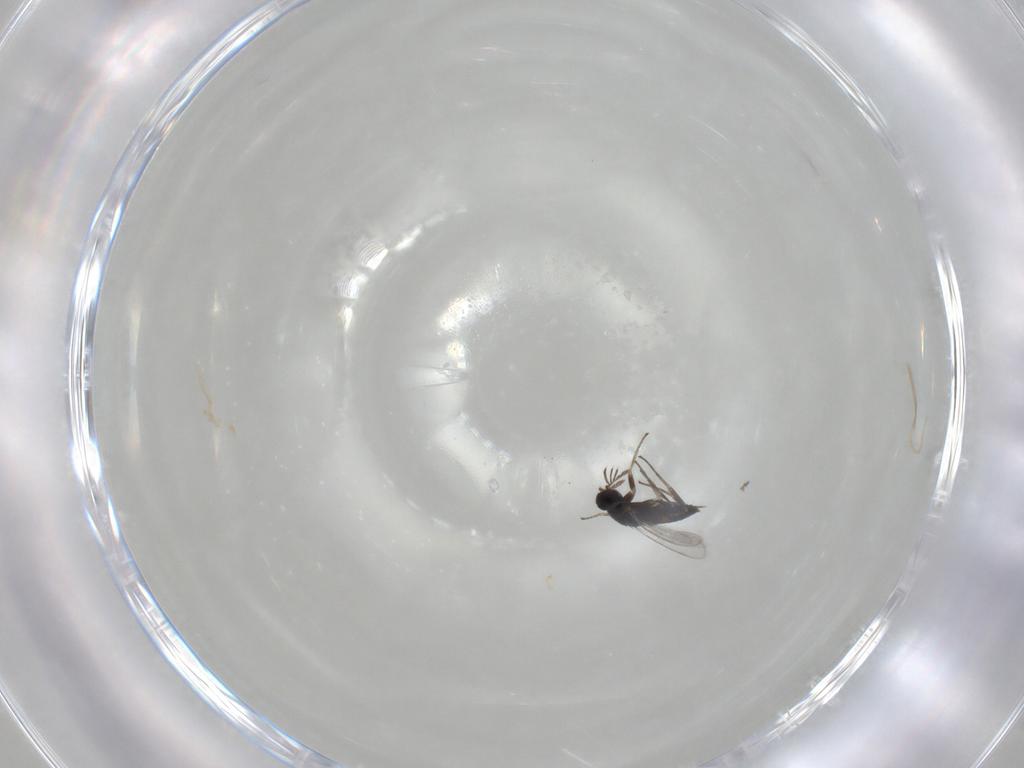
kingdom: Animalia
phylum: Arthropoda
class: Insecta
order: Hymenoptera
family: Eulophidae
